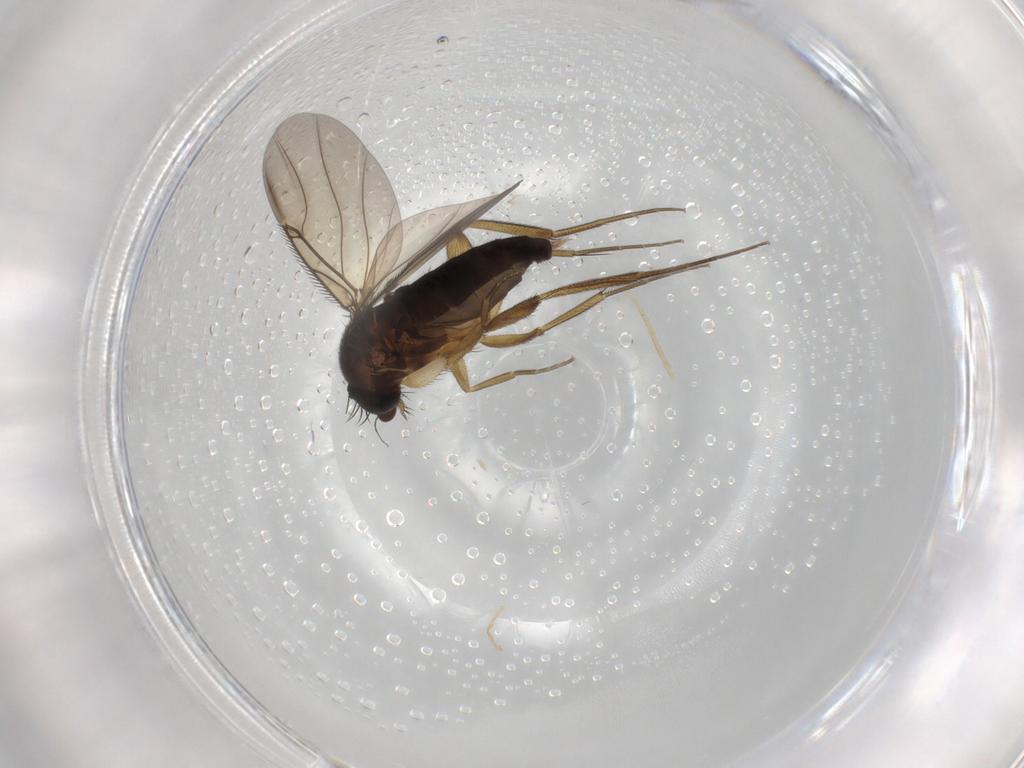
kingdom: Animalia
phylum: Arthropoda
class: Insecta
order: Diptera
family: Phoridae
